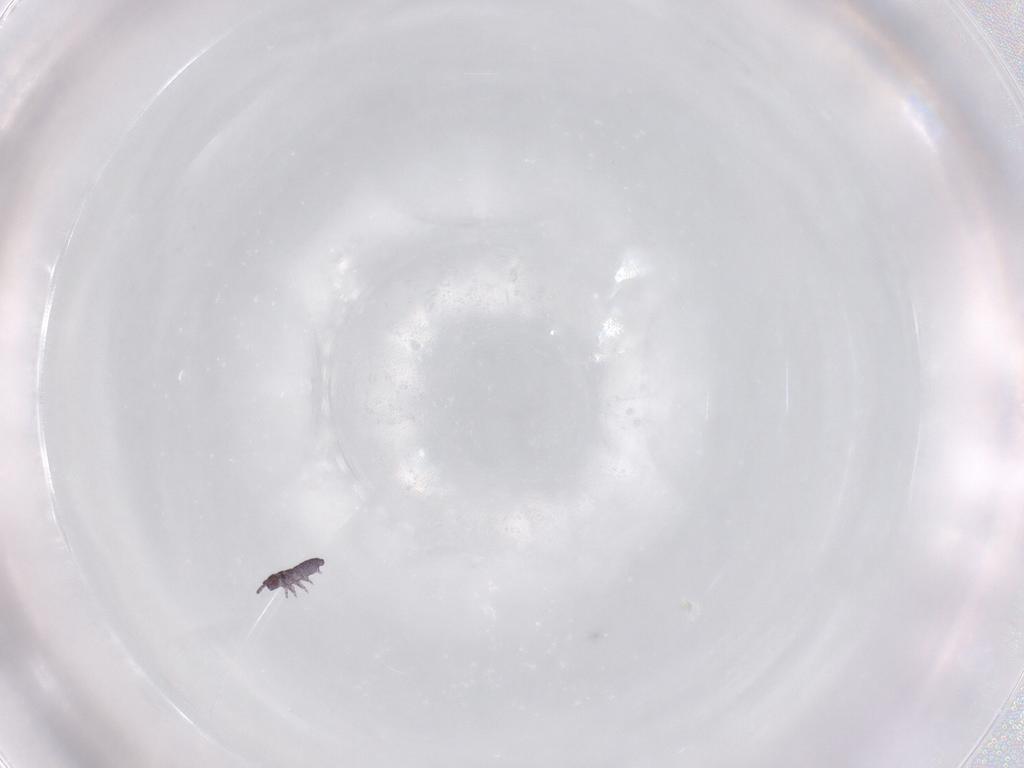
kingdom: Animalia
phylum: Arthropoda
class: Collembola
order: Poduromorpha
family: Hypogastruridae
